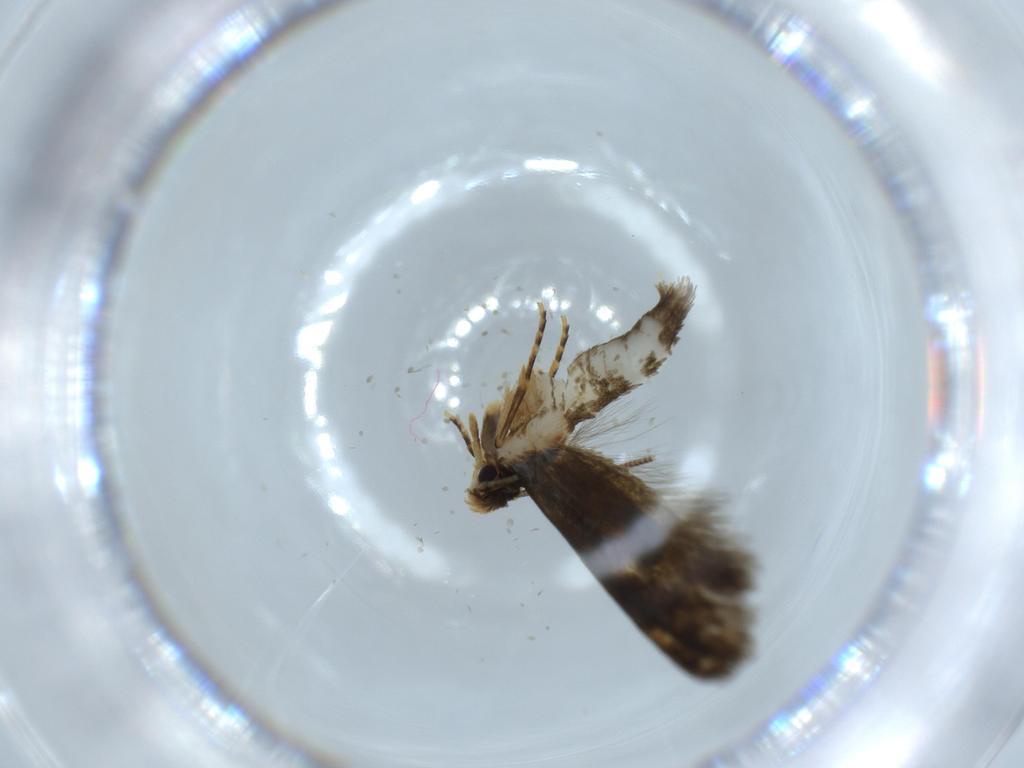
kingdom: Animalia
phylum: Arthropoda
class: Insecta
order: Lepidoptera
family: Tineidae
